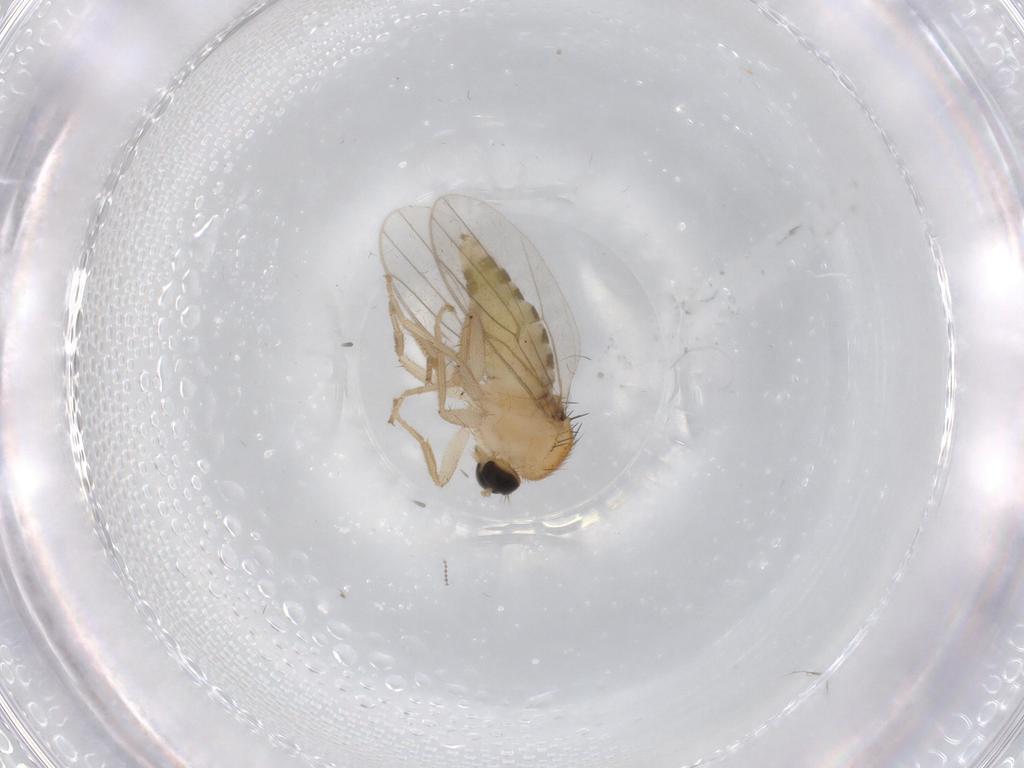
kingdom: Animalia
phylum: Arthropoda
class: Insecta
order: Diptera
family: Hybotidae
